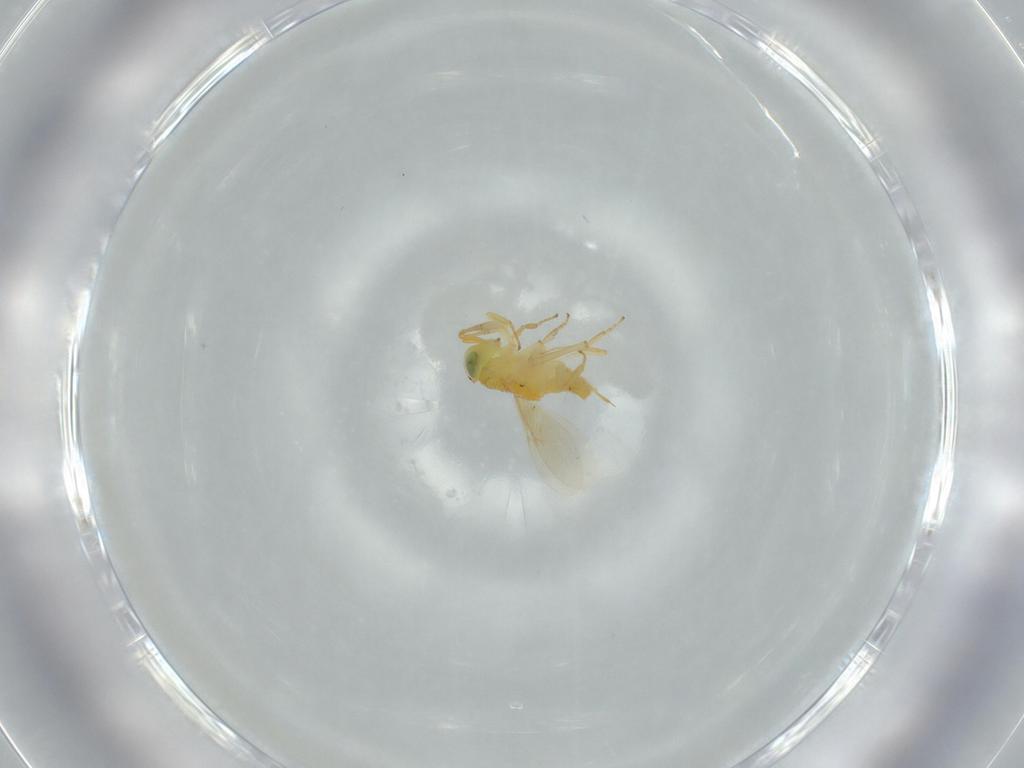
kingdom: Animalia
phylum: Arthropoda
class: Insecta
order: Hymenoptera
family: Encyrtidae
